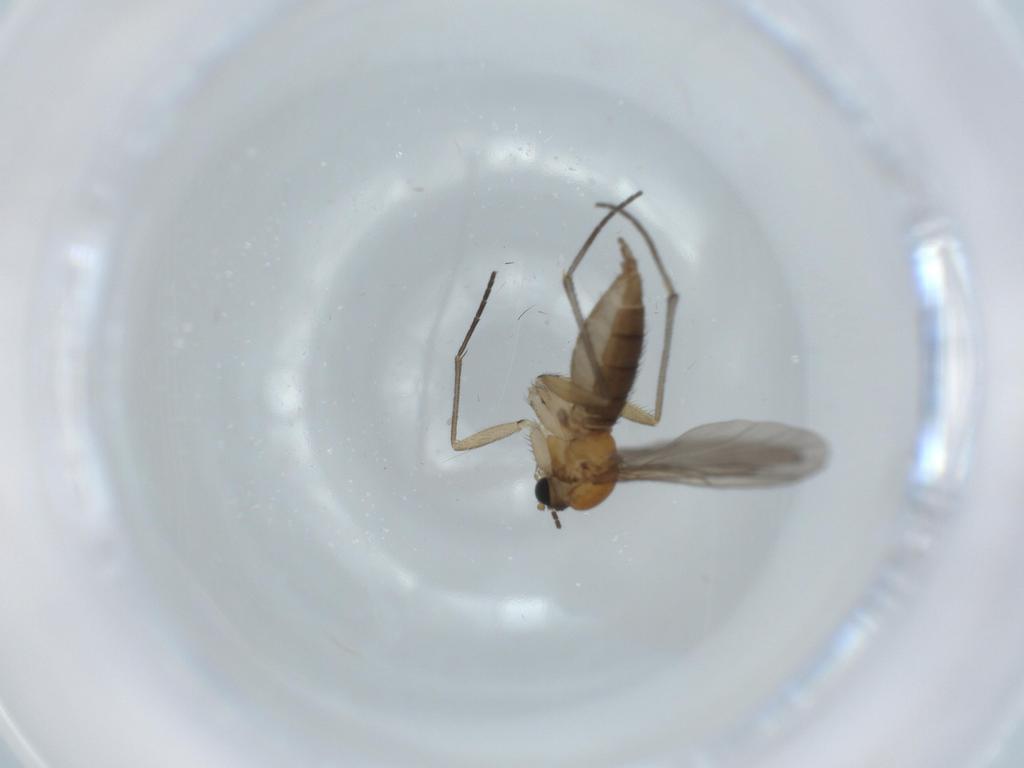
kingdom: Animalia
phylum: Arthropoda
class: Insecta
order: Diptera
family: Sciaridae
